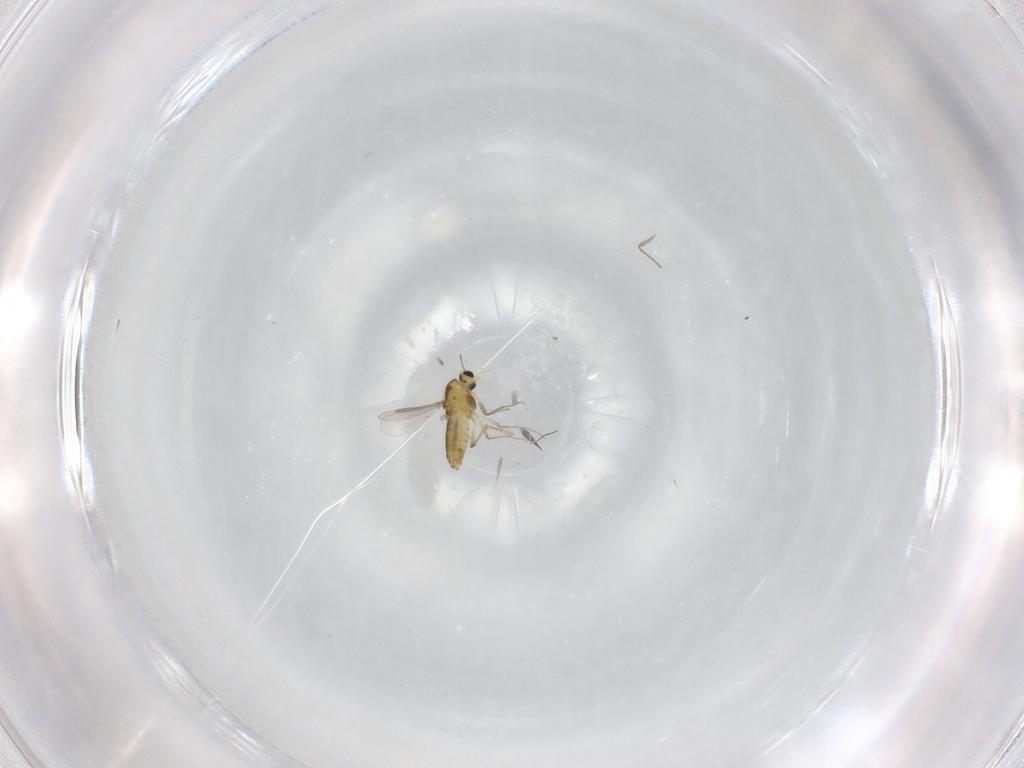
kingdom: Animalia
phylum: Arthropoda
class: Insecta
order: Diptera
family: Chironomidae
